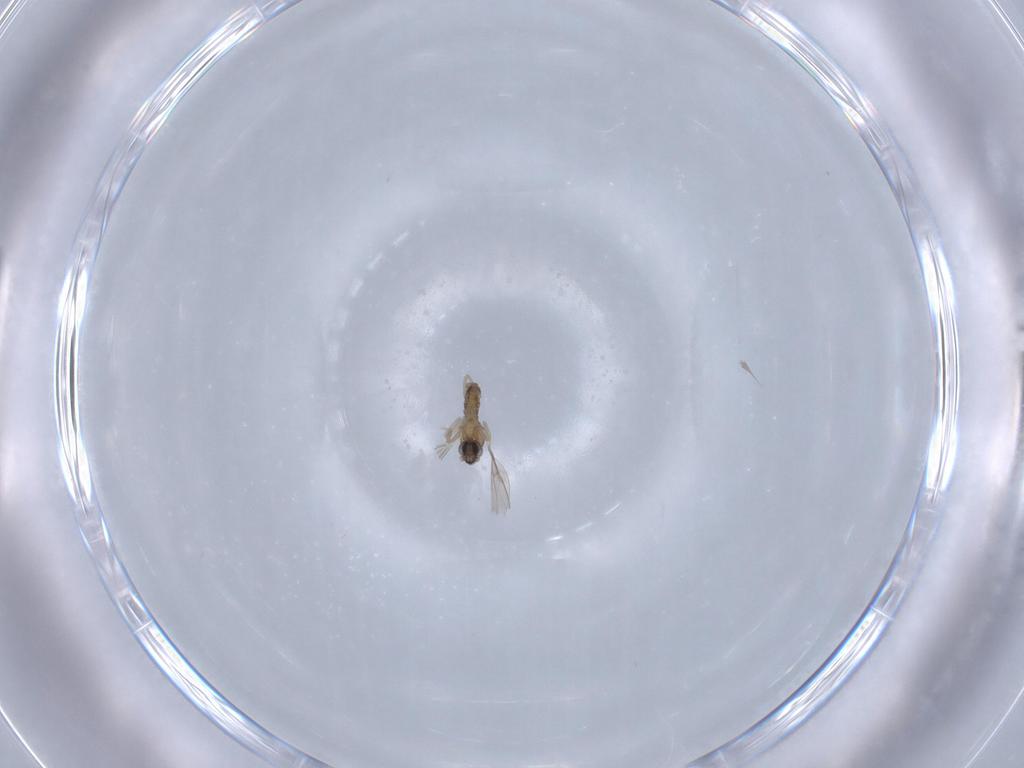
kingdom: Animalia
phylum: Arthropoda
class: Insecta
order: Diptera
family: Cecidomyiidae
